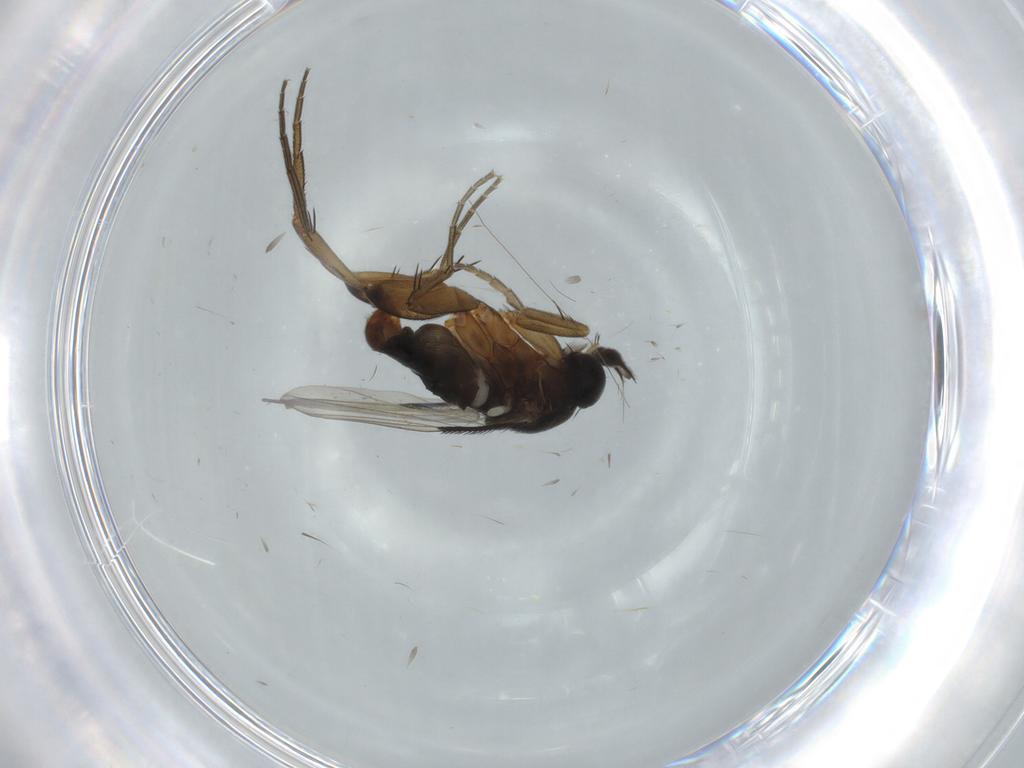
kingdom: Animalia
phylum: Arthropoda
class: Insecta
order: Diptera
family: Phoridae
